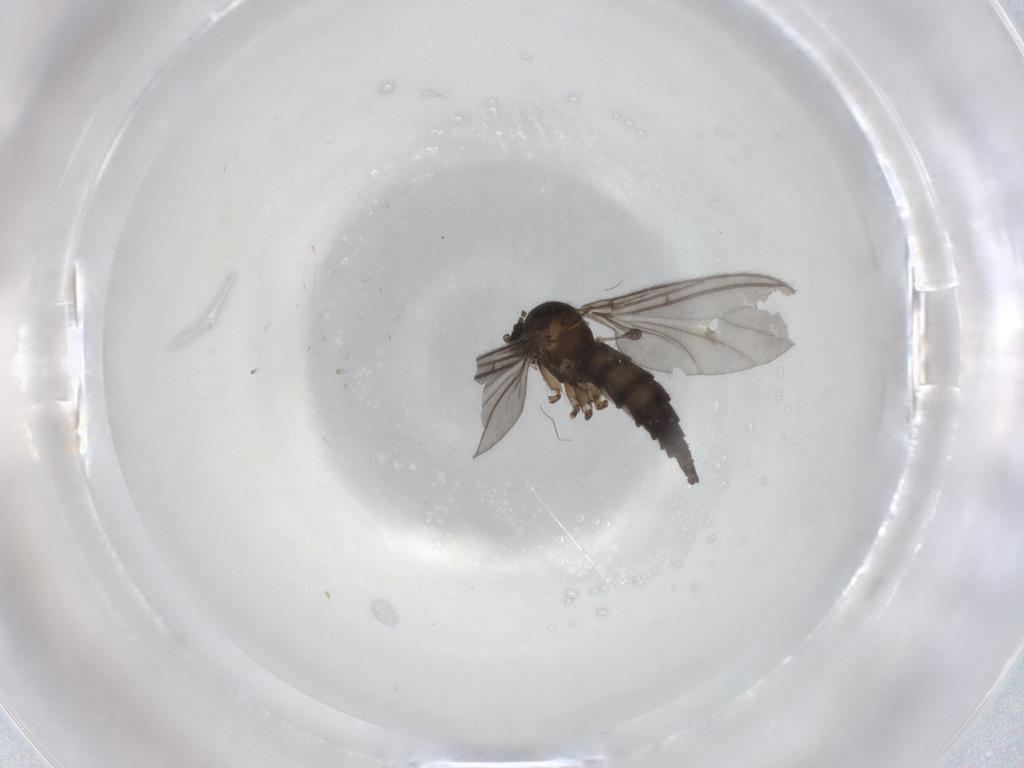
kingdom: Animalia
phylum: Arthropoda
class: Insecta
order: Diptera
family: Sciaridae
